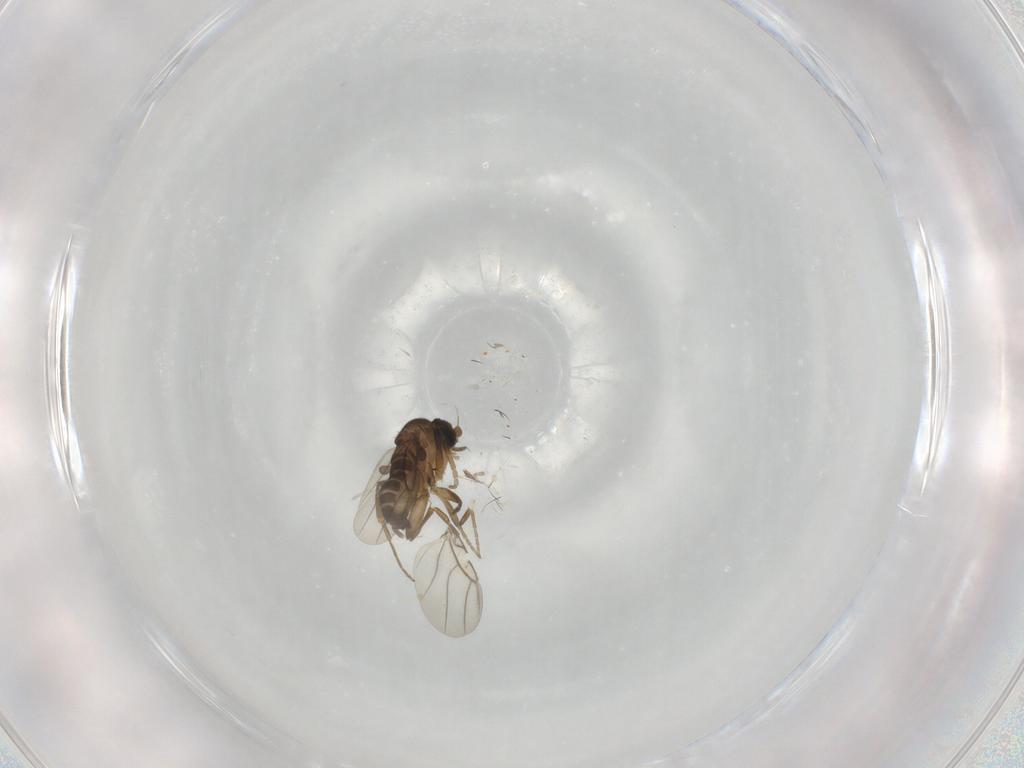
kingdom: Animalia
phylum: Arthropoda
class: Insecta
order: Diptera
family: Phoridae
